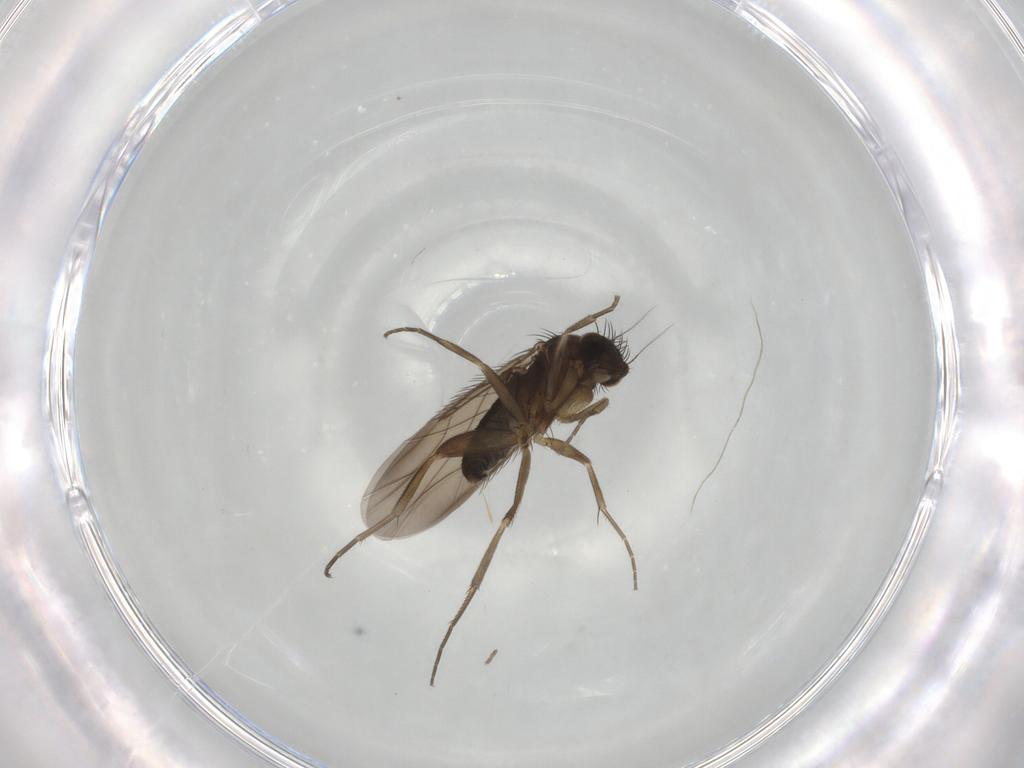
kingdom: Animalia
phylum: Arthropoda
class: Insecta
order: Diptera
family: Phoridae
